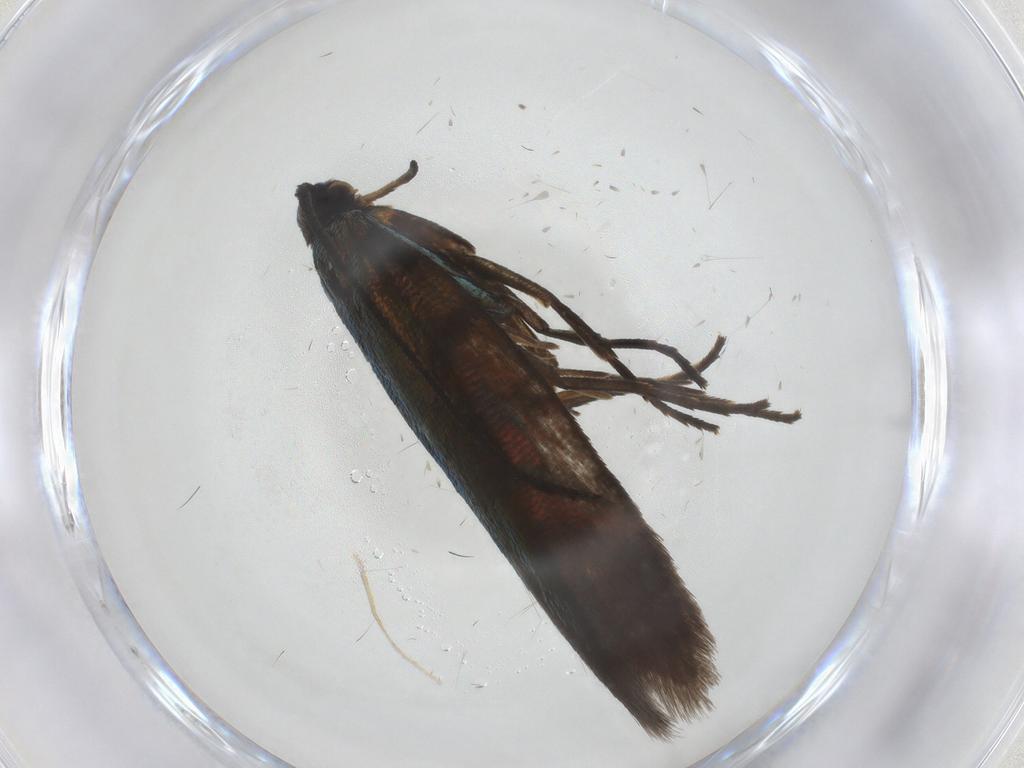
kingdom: Animalia
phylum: Arthropoda
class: Insecta
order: Lepidoptera
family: Argyresthiidae
